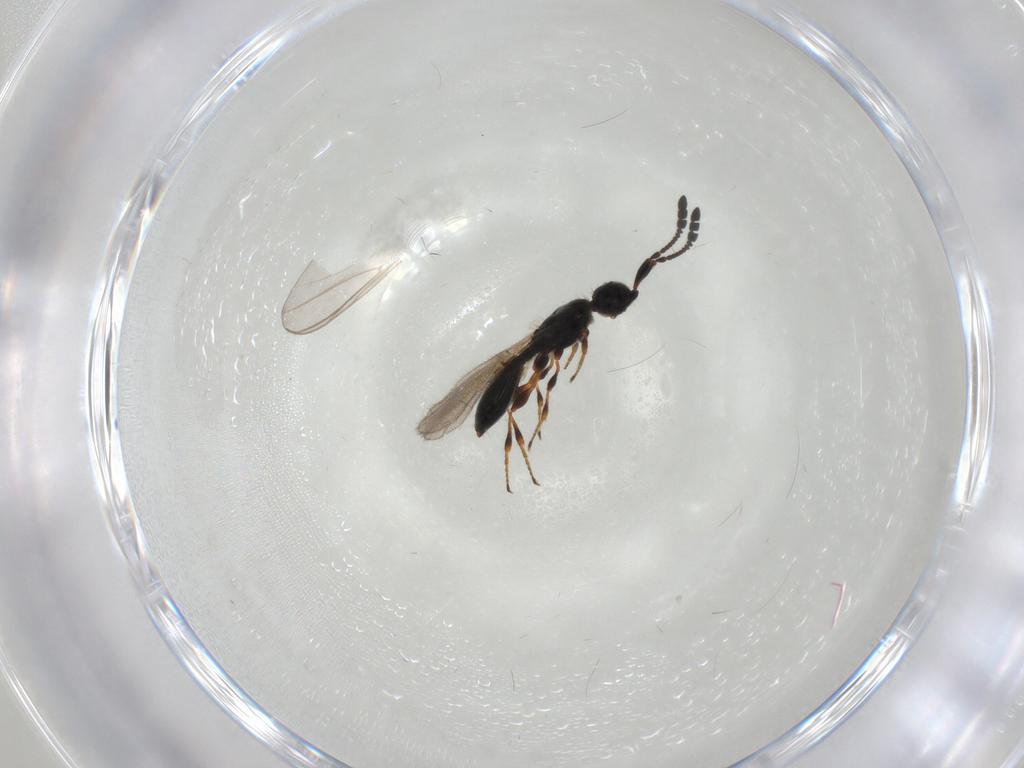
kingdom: Animalia
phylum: Arthropoda
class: Insecta
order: Hymenoptera
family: Diapriidae
